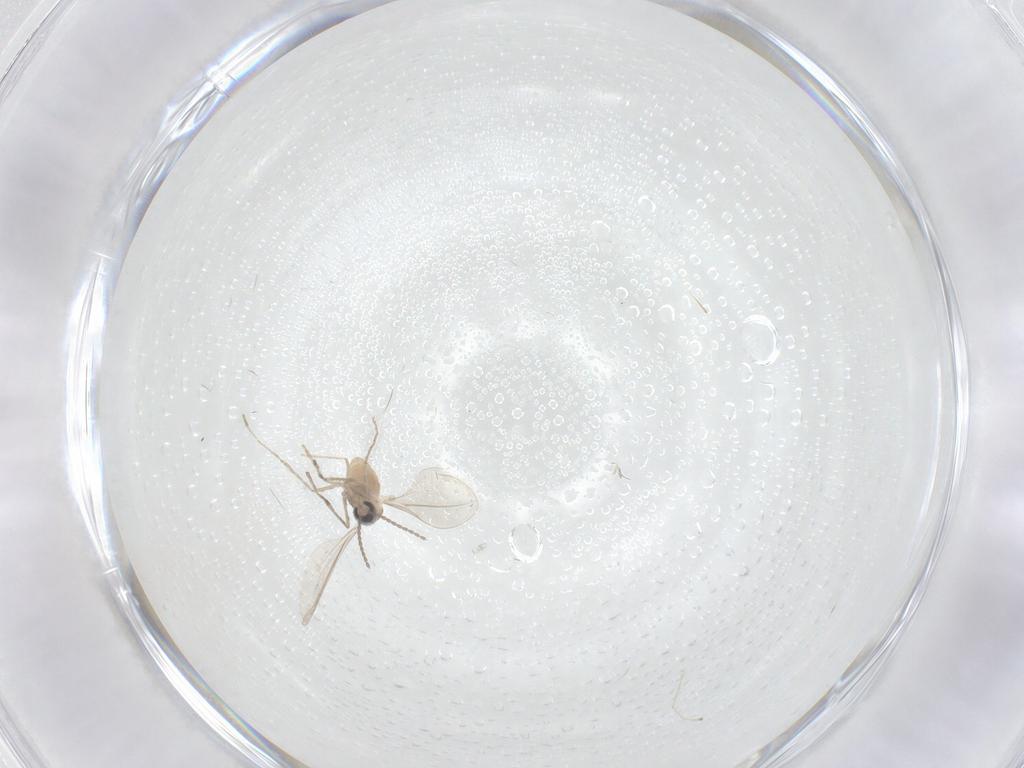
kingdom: Animalia
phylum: Arthropoda
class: Insecta
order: Diptera
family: Cecidomyiidae
